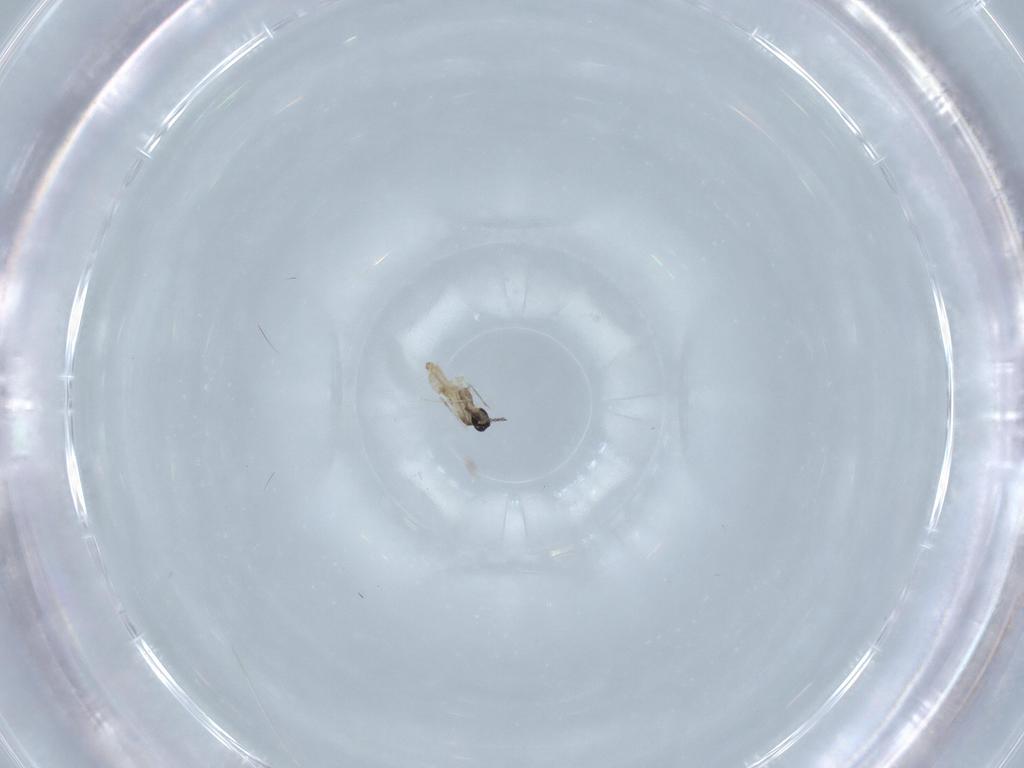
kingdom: Animalia
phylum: Arthropoda
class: Insecta
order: Diptera
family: Cecidomyiidae
